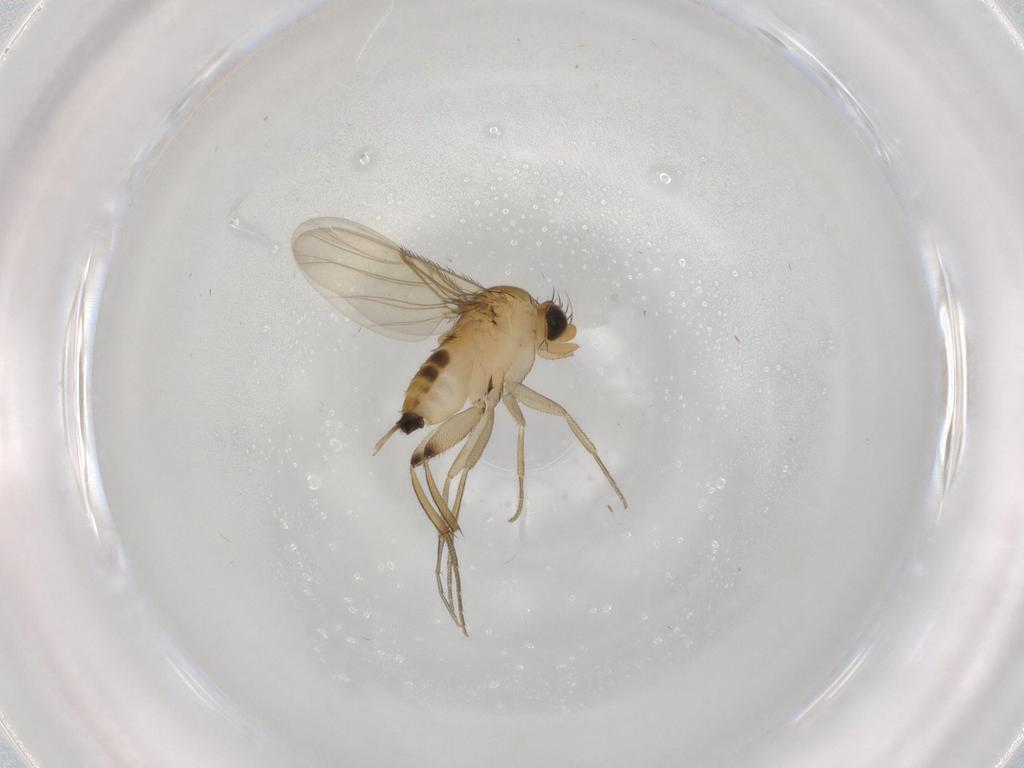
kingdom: Animalia
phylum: Arthropoda
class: Insecta
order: Diptera
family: Phoridae
